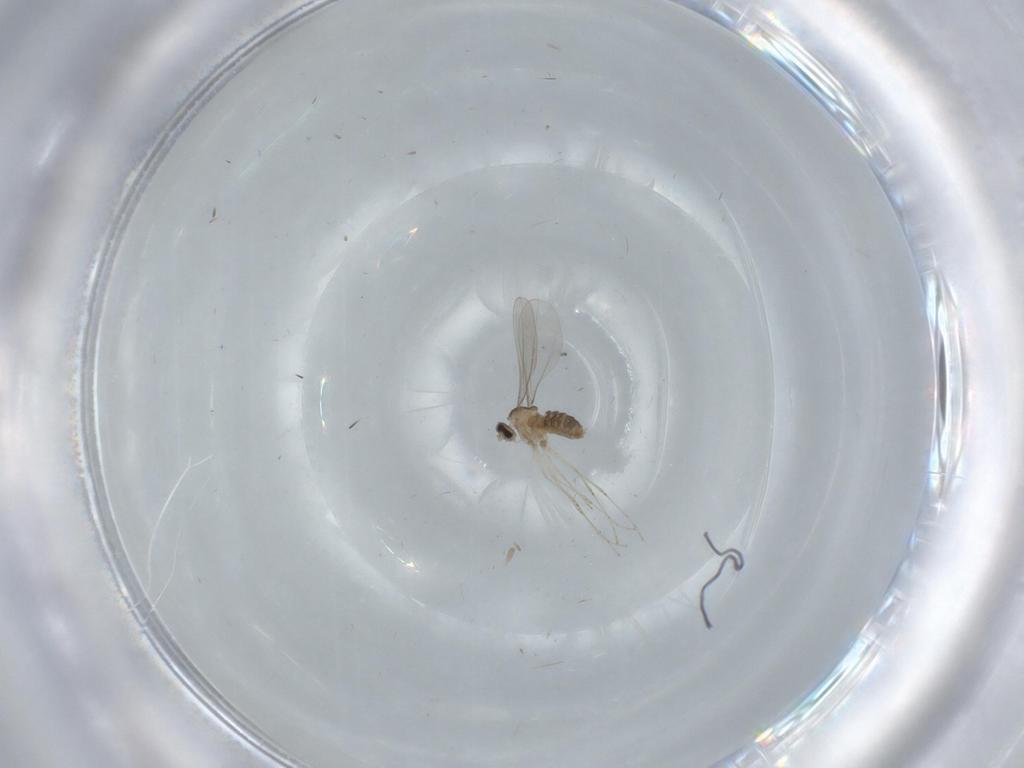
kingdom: Animalia
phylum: Arthropoda
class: Insecta
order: Diptera
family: Cecidomyiidae
